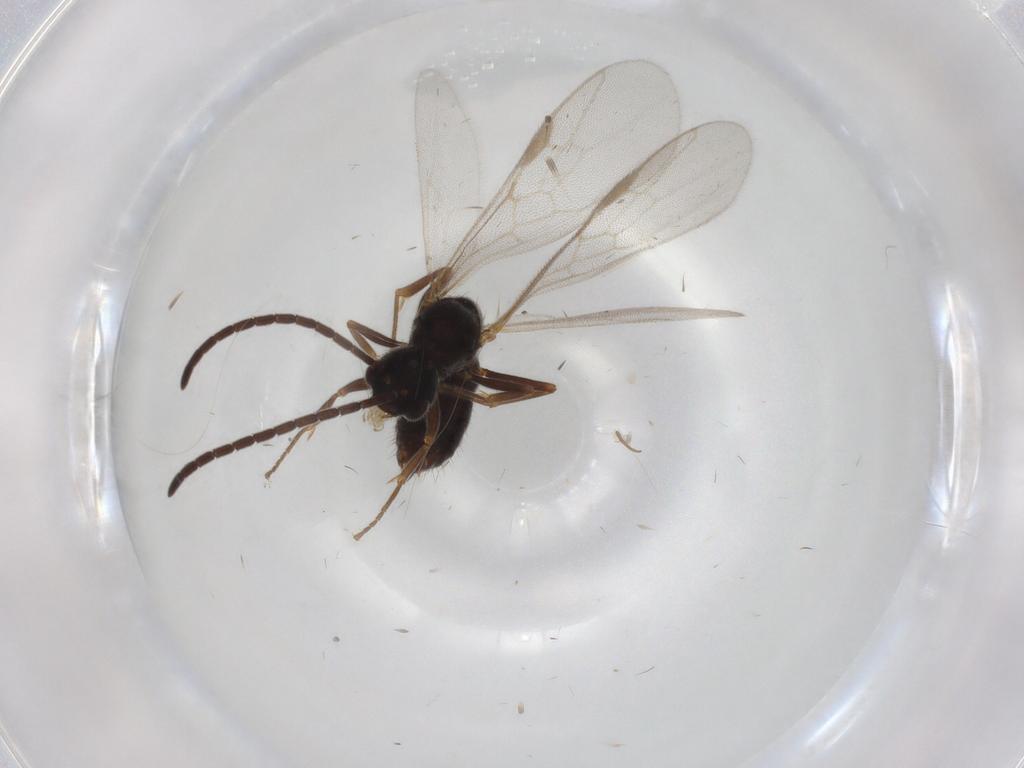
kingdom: Animalia
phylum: Arthropoda
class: Insecta
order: Hymenoptera
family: Formicidae
